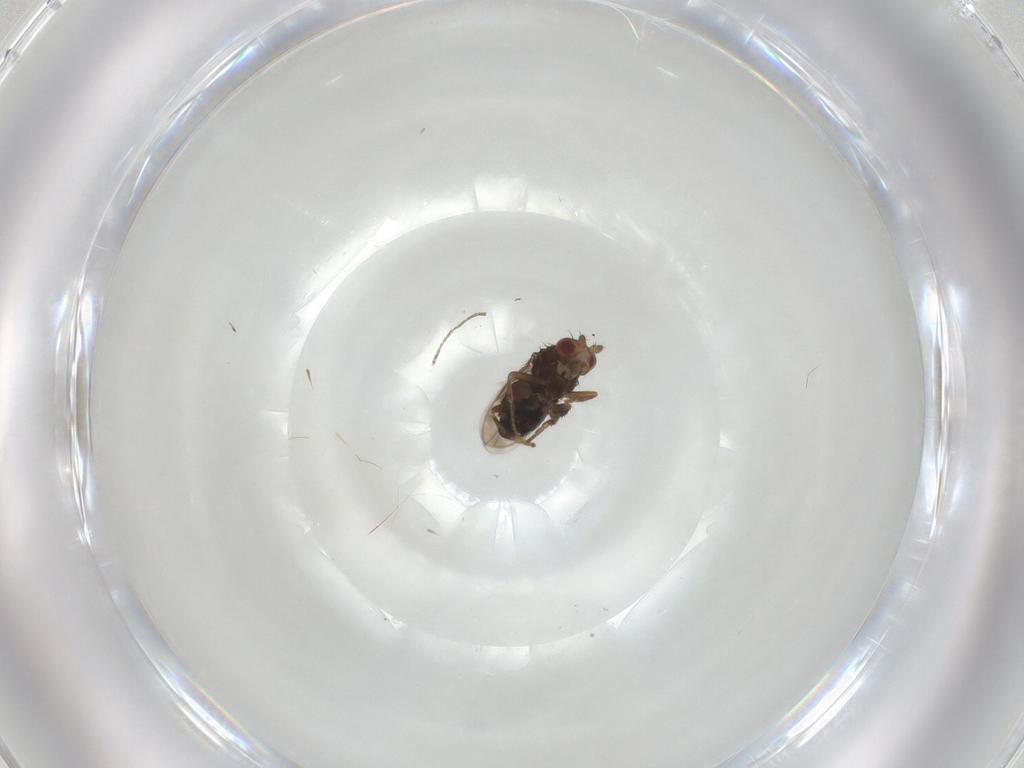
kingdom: Animalia
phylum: Arthropoda
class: Insecta
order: Diptera
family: Sphaeroceridae
